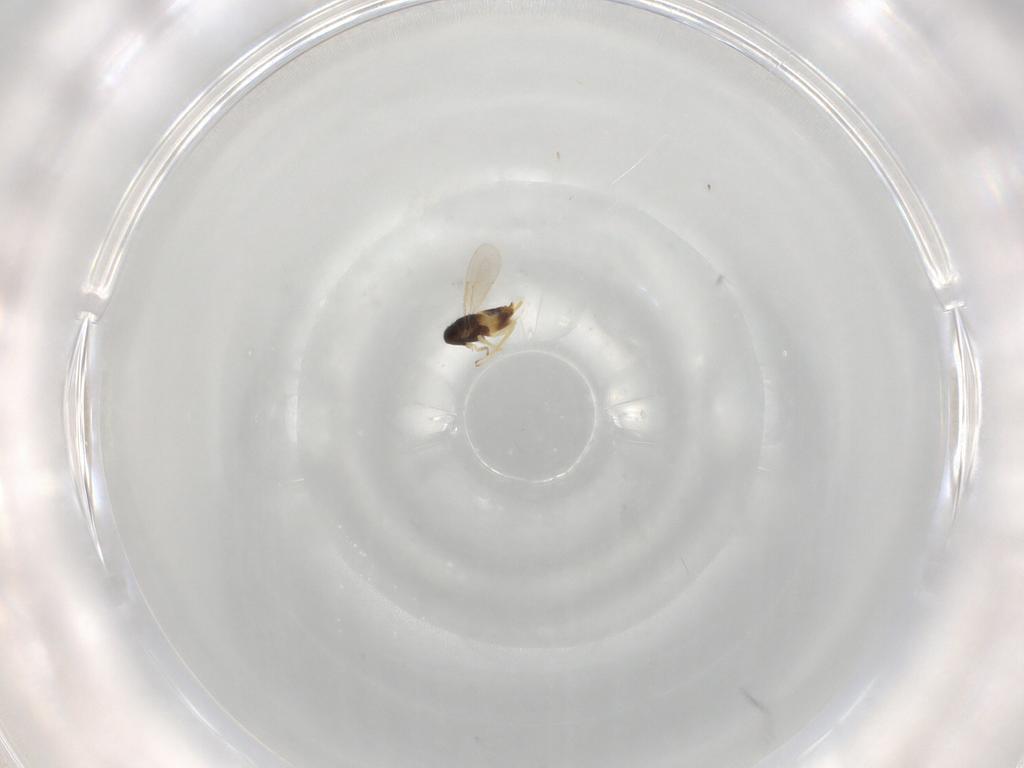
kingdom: Animalia
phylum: Arthropoda
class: Insecta
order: Hymenoptera
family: Aphelinidae
